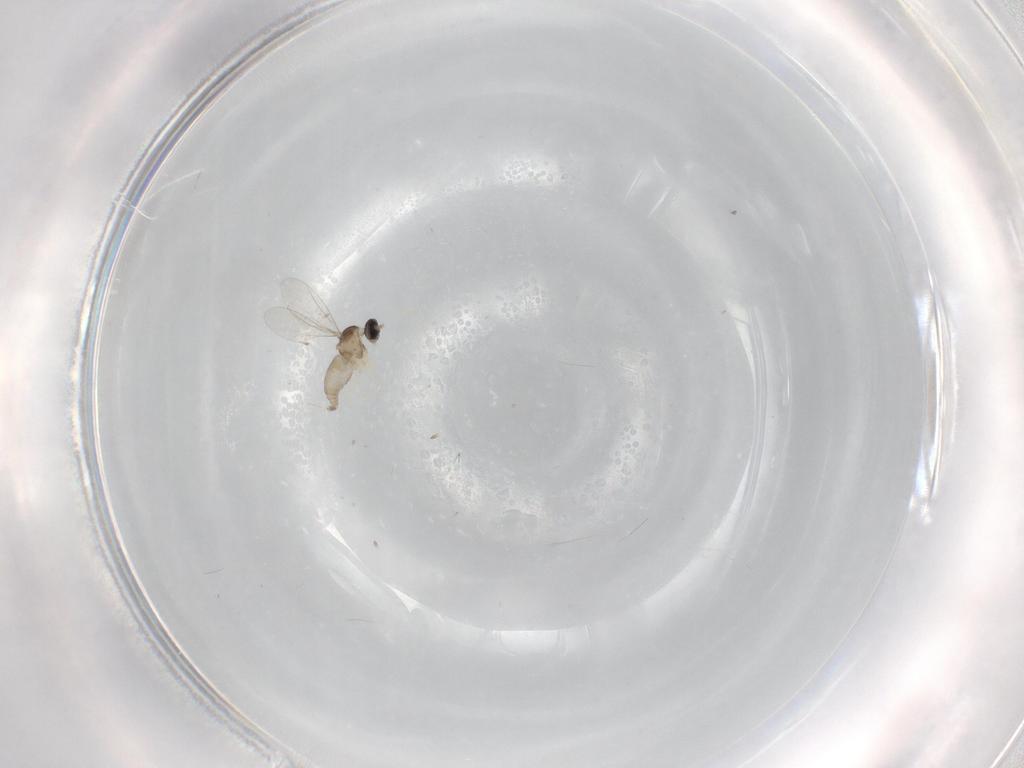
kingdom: Animalia
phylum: Arthropoda
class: Insecta
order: Diptera
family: Cecidomyiidae
